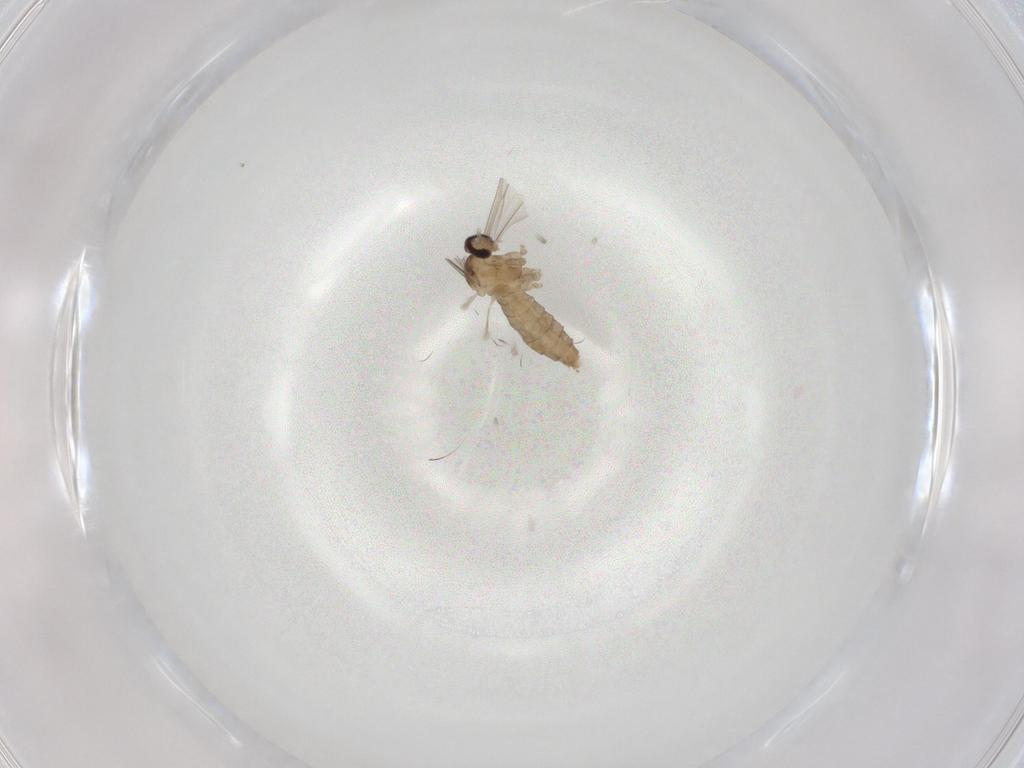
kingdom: Animalia
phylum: Arthropoda
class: Insecta
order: Diptera
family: Cecidomyiidae
